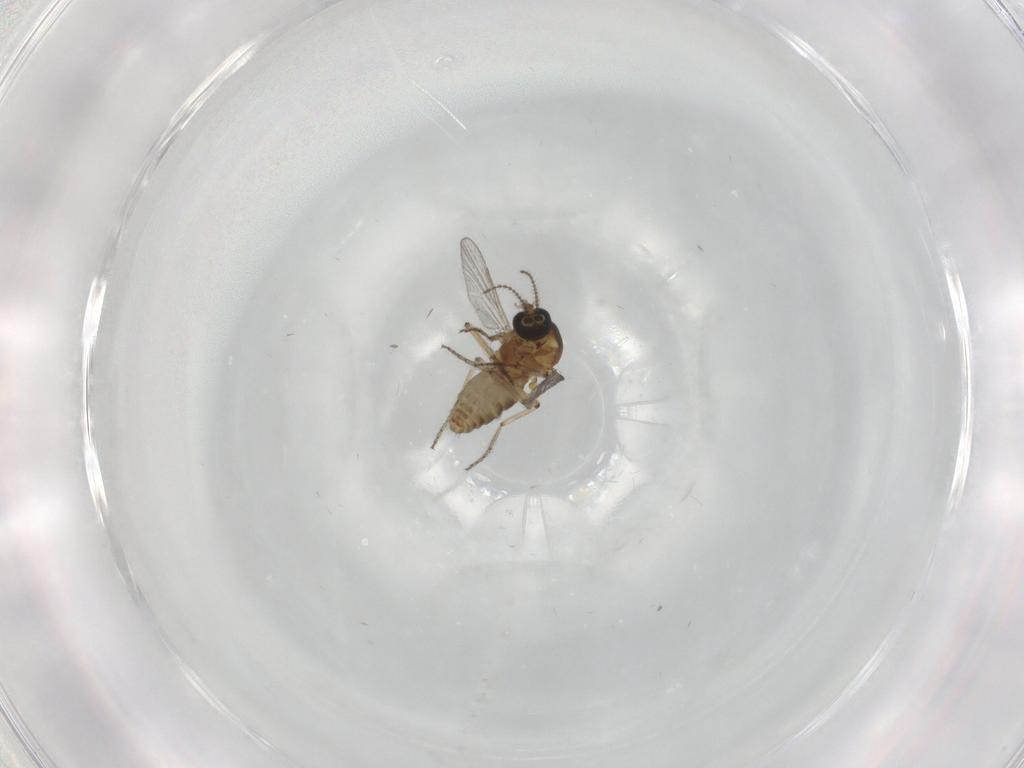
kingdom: Animalia
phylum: Arthropoda
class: Insecta
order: Diptera
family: Ceratopogonidae
